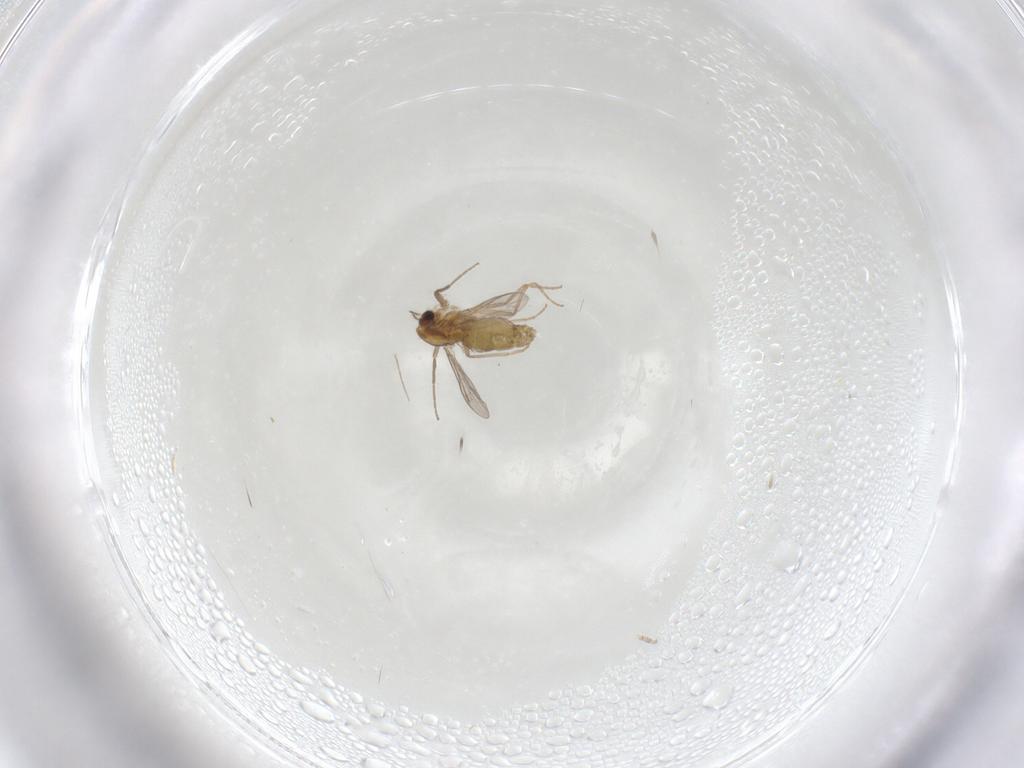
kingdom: Animalia
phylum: Arthropoda
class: Insecta
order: Diptera
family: Chironomidae
